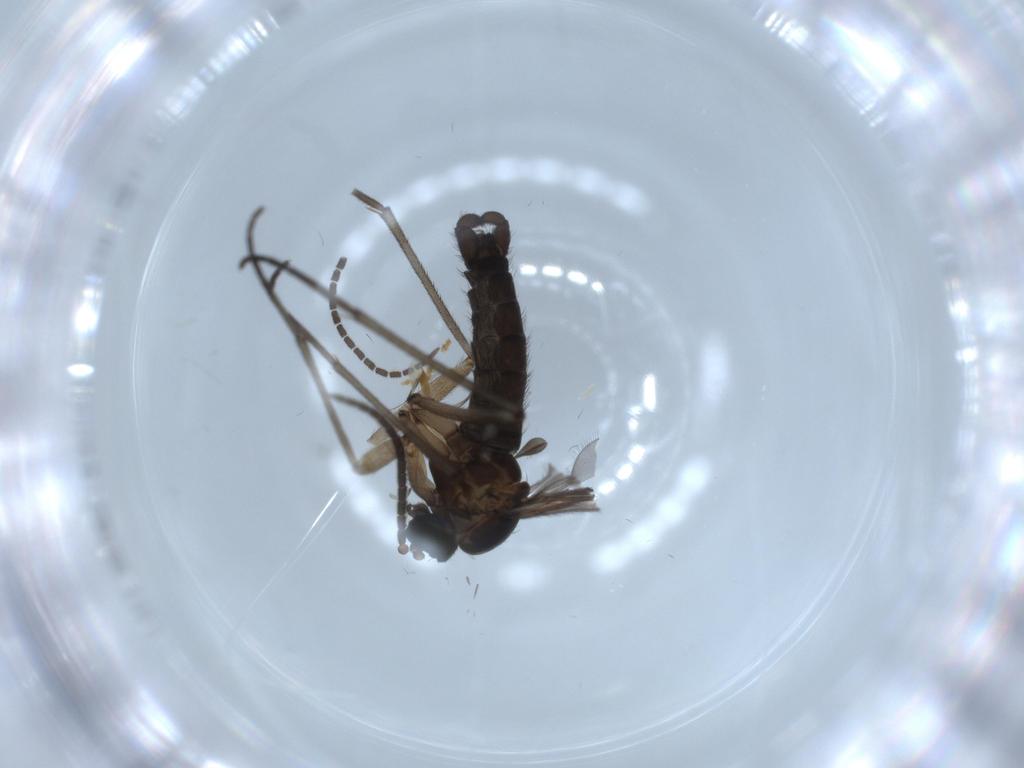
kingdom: Animalia
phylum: Arthropoda
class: Insecta
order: Diptera
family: Sciaridae
